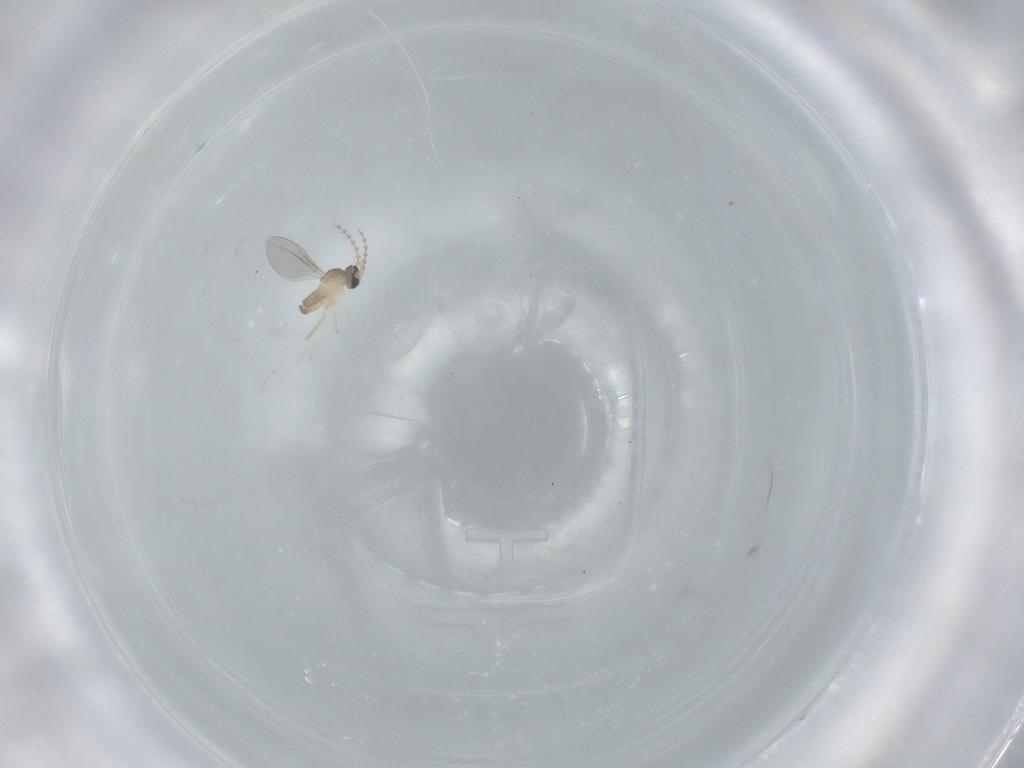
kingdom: Animalia
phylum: Arthropoda
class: Insecta
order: Diptera
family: Cecidomyiidae
